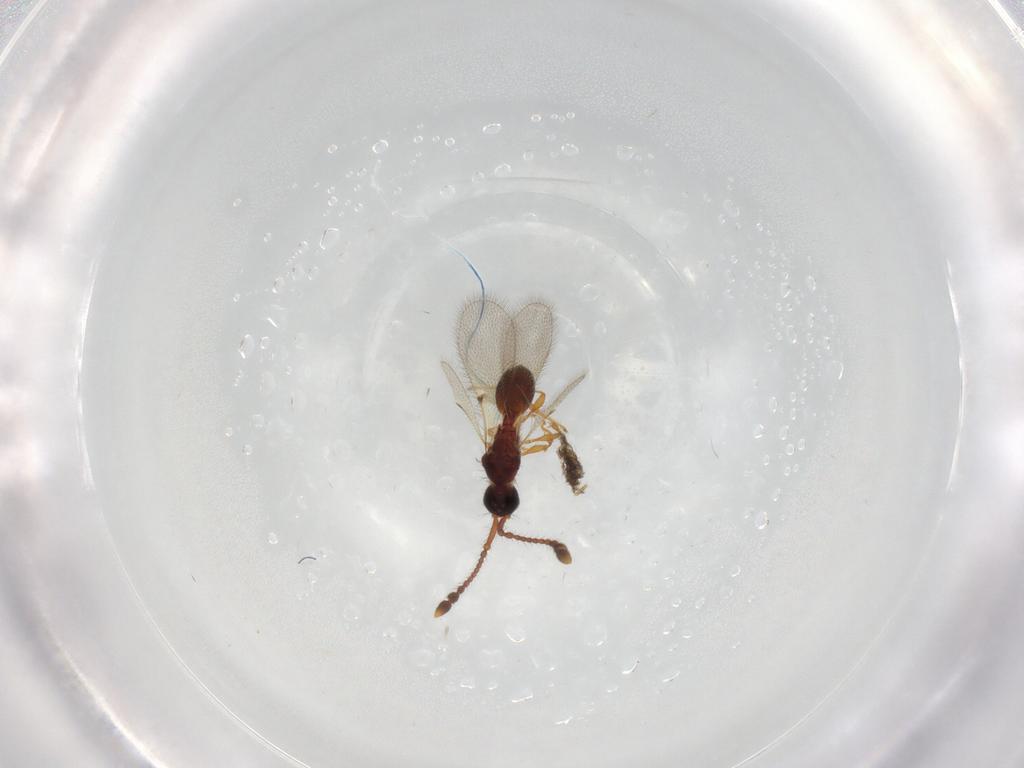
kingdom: Animalia
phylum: Arthropoda
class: Insecta
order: Hymenoptera
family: Diapriidae
